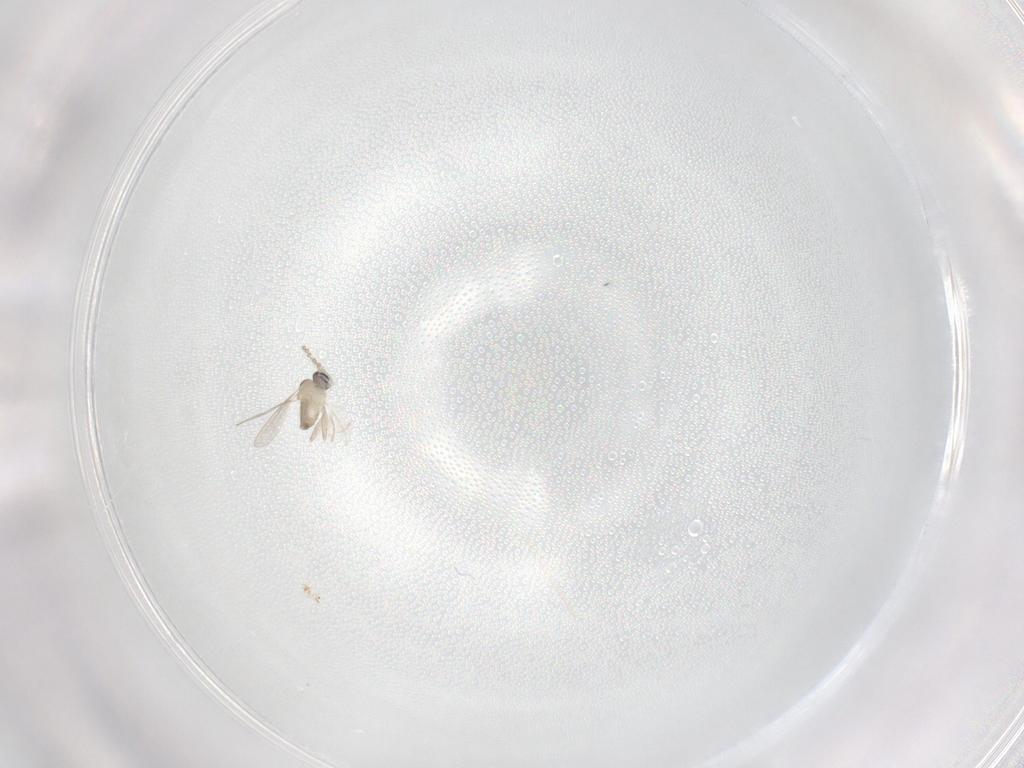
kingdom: Animalia
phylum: Arthropoda
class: Insecta
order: Diptera
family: Cecidomyiidae
